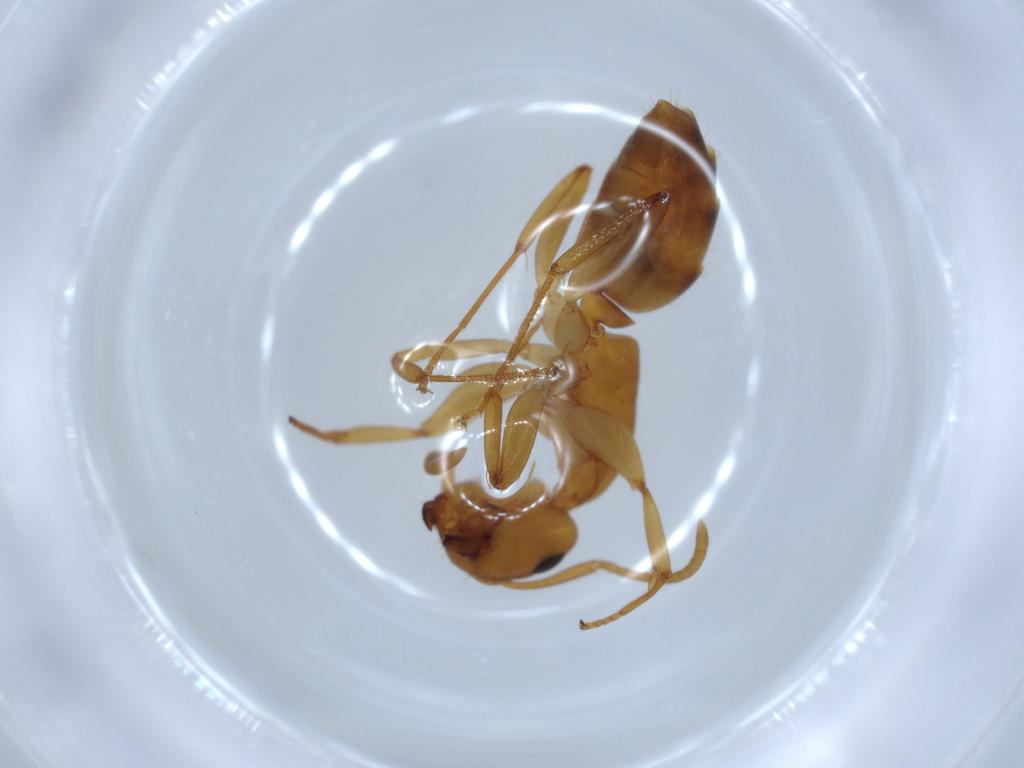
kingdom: Animalia
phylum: Arthropoda
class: Insecta
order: Hymenoptera
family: Formicidae
